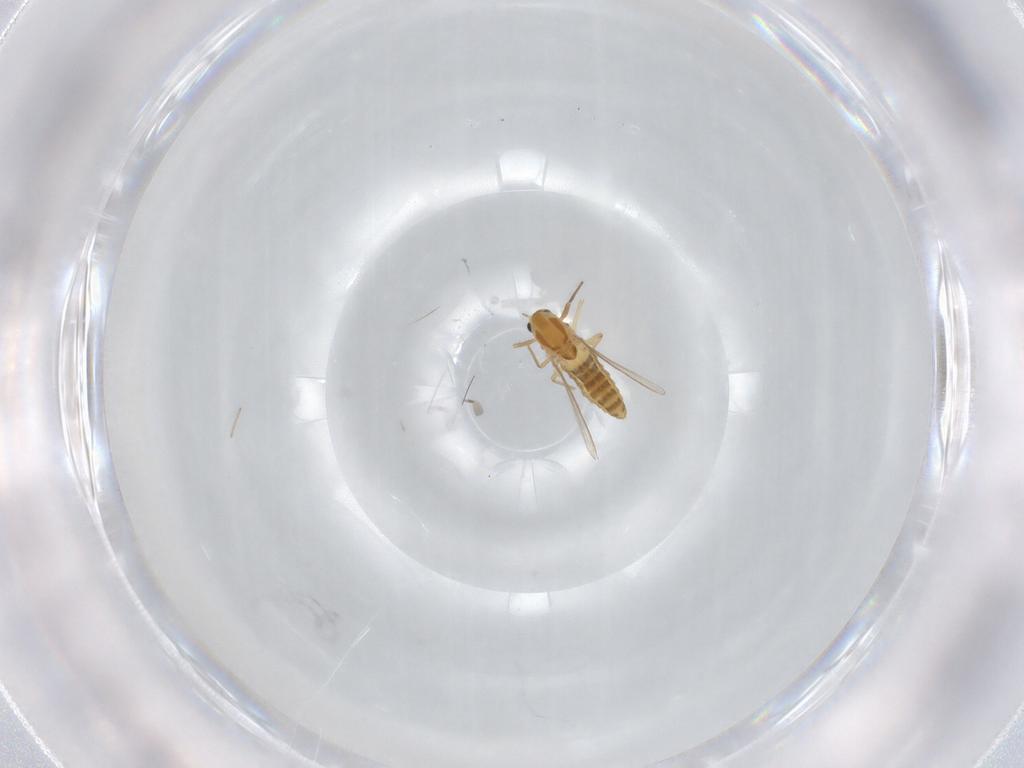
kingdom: Animalia
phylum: Arthropoda
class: Insecta
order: Diptera
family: Chironomidae
